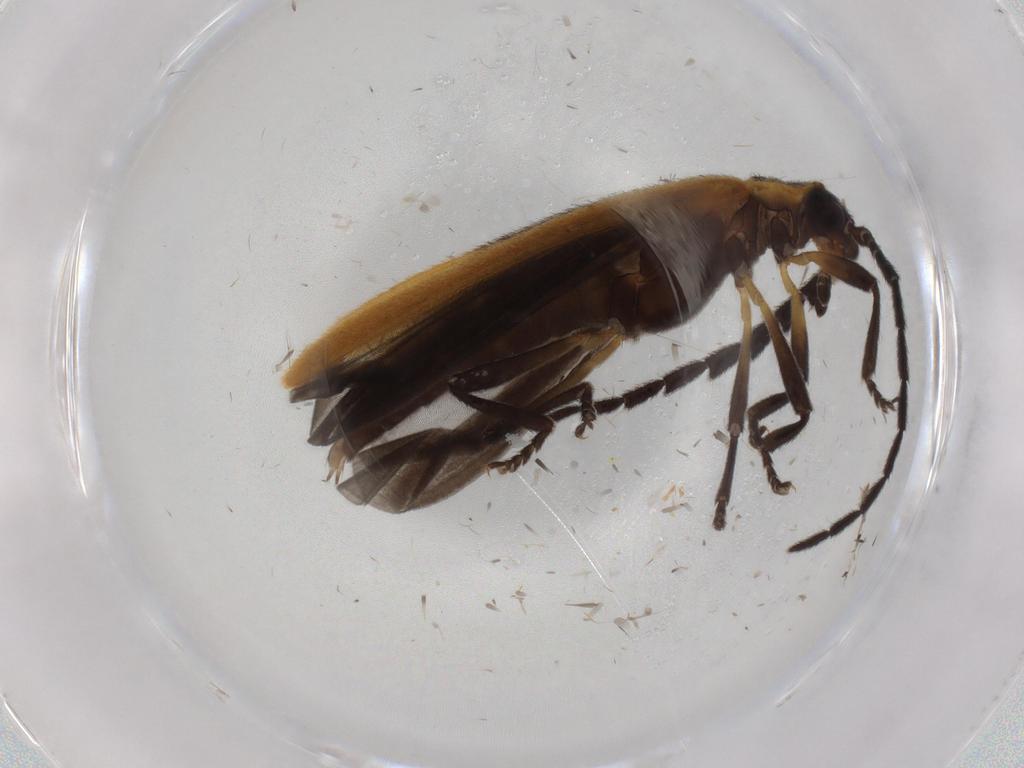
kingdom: Animalia
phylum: Arthropoda
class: Insecta
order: Coleoptera
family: Lycidae
